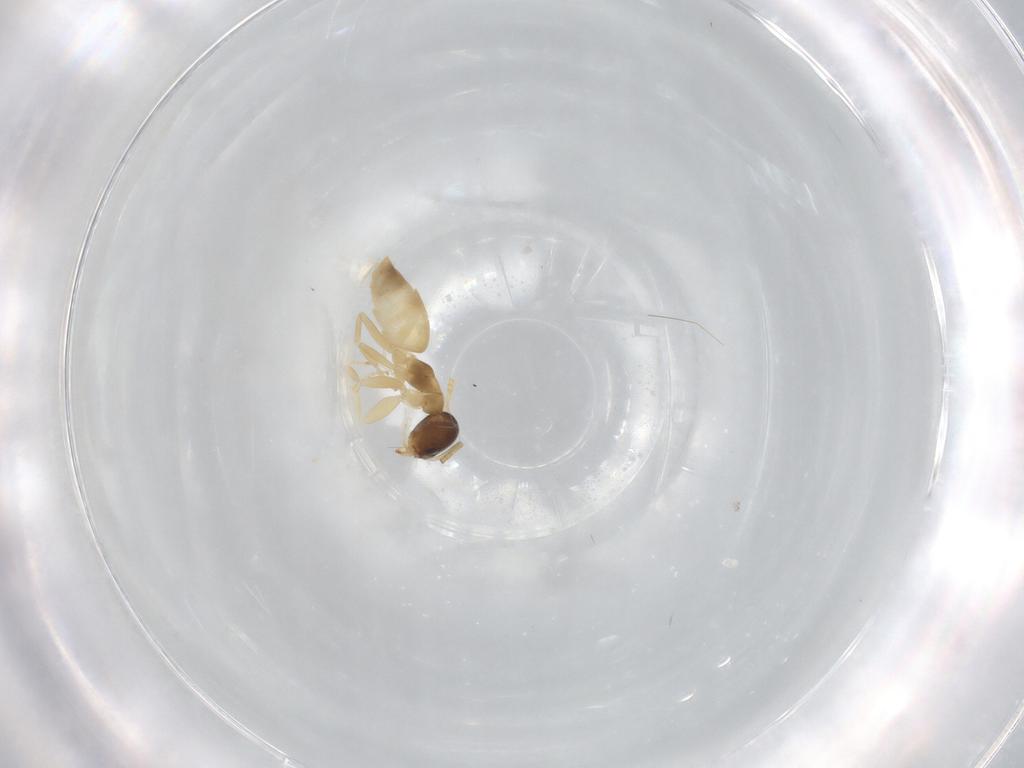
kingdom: Animalia
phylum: Arthropoda
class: Insecta
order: Hymenoptera
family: Formicidae
